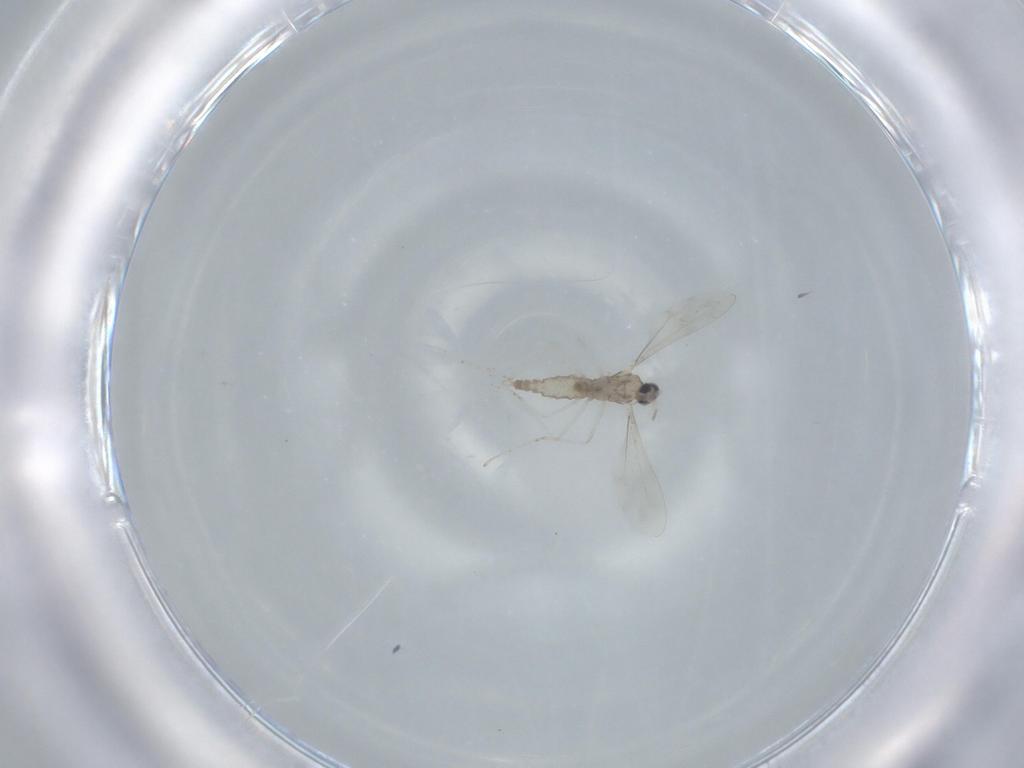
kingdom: Animalia
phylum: Arthropoda
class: Insecta
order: Diptera
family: Cecidomyiidae
